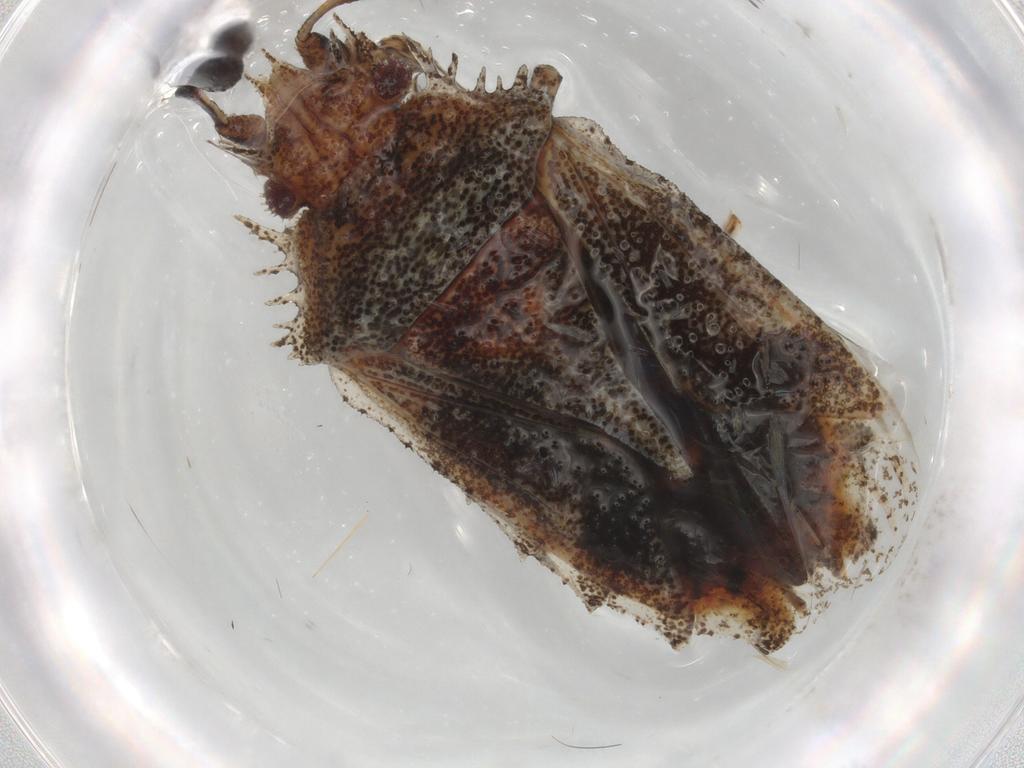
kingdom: Animalia
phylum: Arthropoda
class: Insecta
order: Hemiptera
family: Pentatomidae
